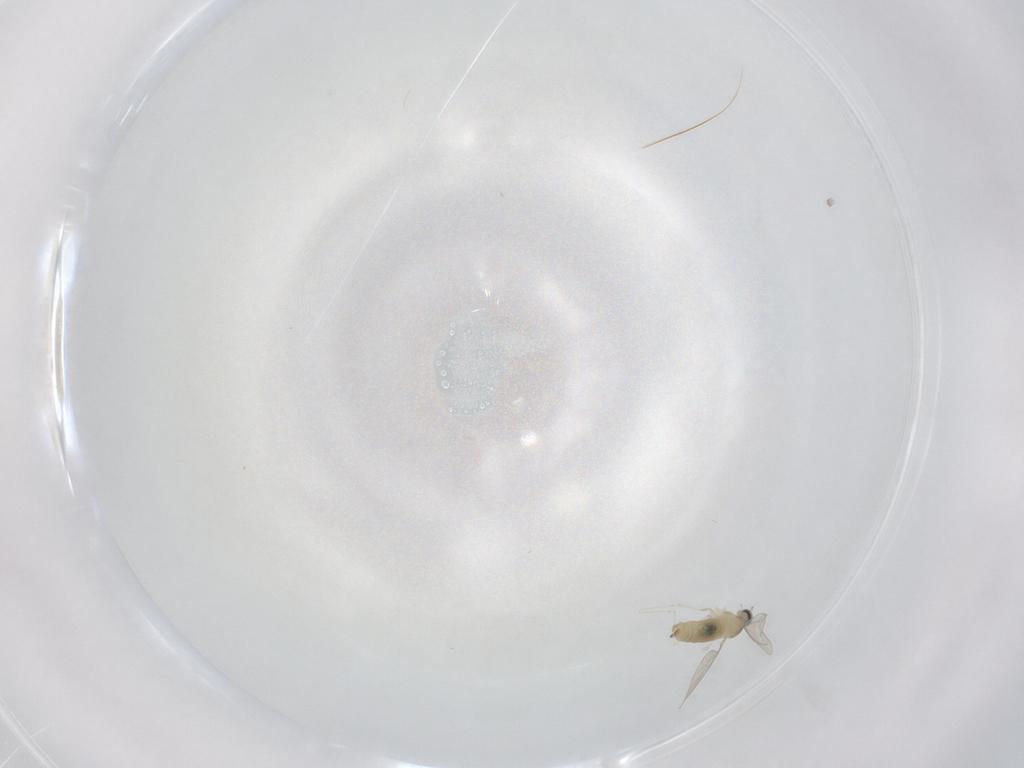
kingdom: Animalia
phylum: Arthropoda
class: Insecta
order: Diptera
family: Cecidomyiidae
